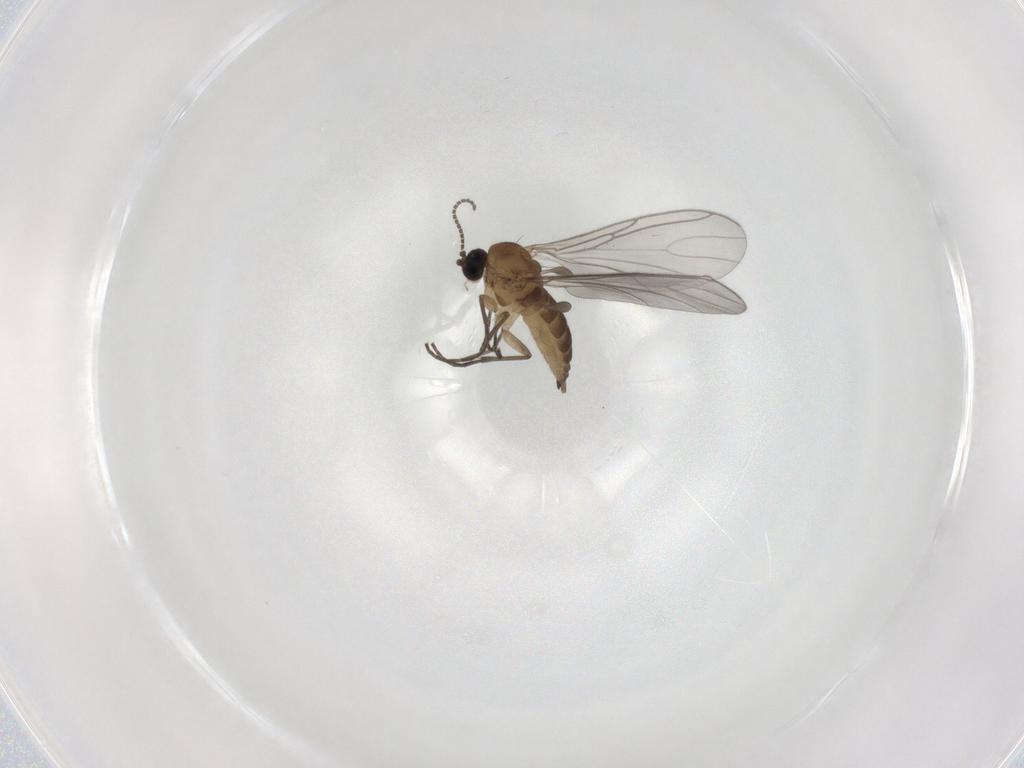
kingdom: Animalia
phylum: Arthropoda
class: Insecta
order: Diptera
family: Sciaridae
